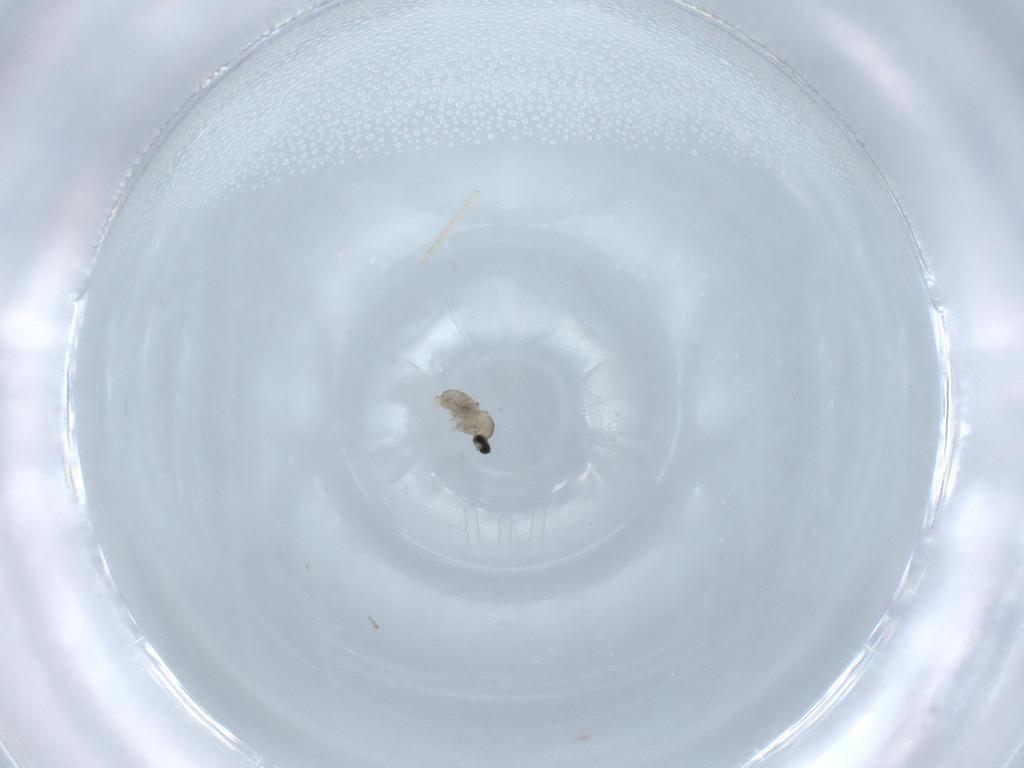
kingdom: Animalia
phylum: Arthropoda
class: Insecta
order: Diptera
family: Cecidomyiidae
